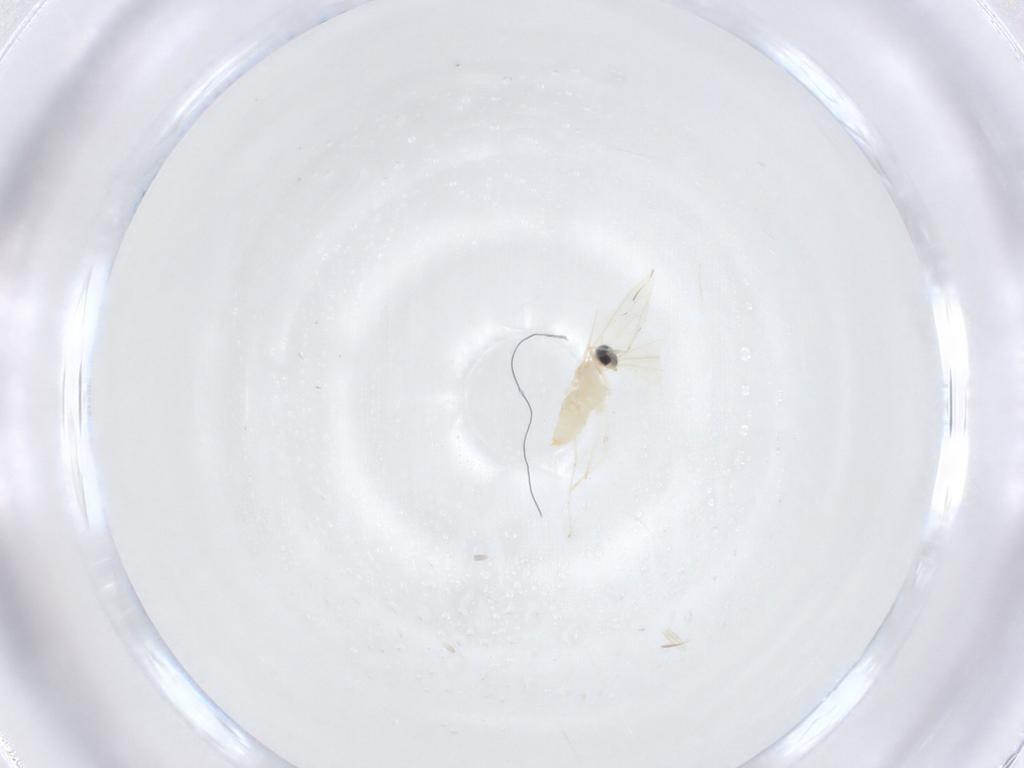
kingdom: Animalia
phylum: Arthropoda
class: Insecta
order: Diptera
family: Cecidomyiidae
